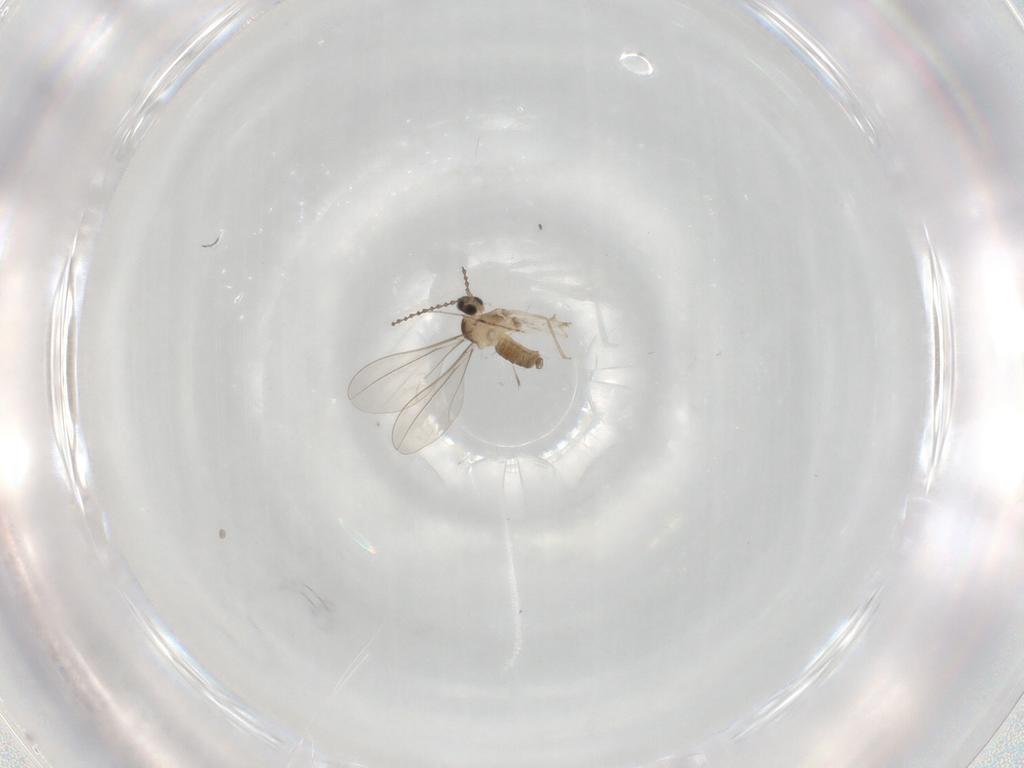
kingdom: Animalia
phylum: Arthropoda
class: Insecta
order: Diptera
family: Cecidomyiidae
